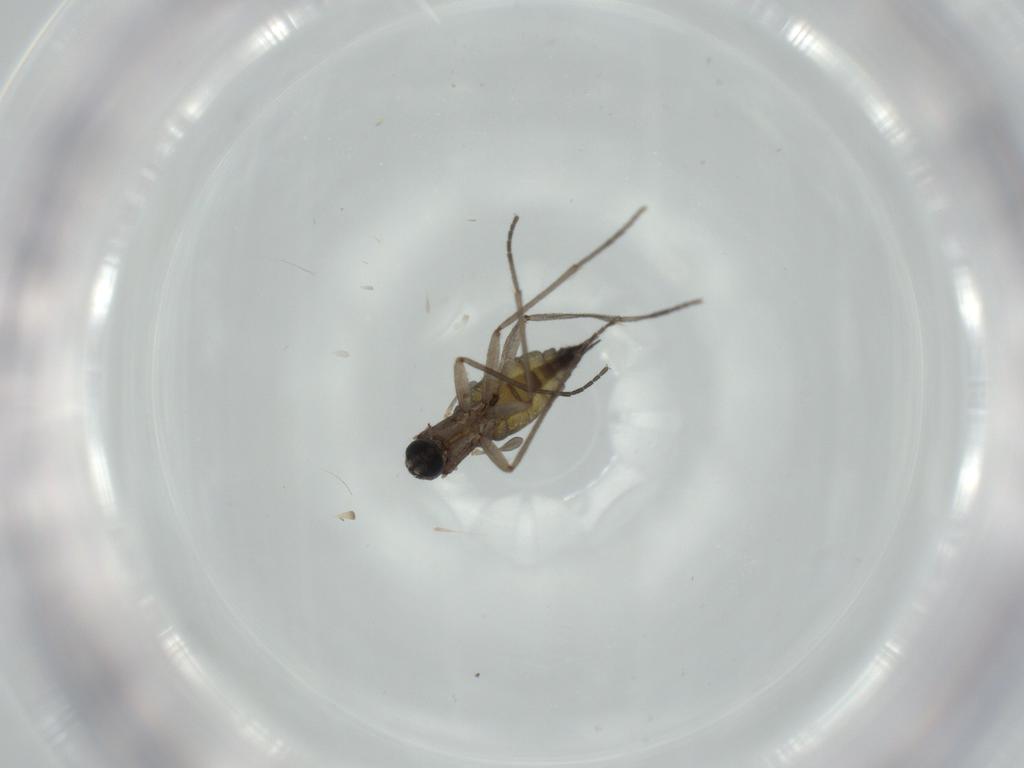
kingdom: Animalia
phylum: Arthropoda
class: Insecta
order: Diptera
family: Sciaridae
